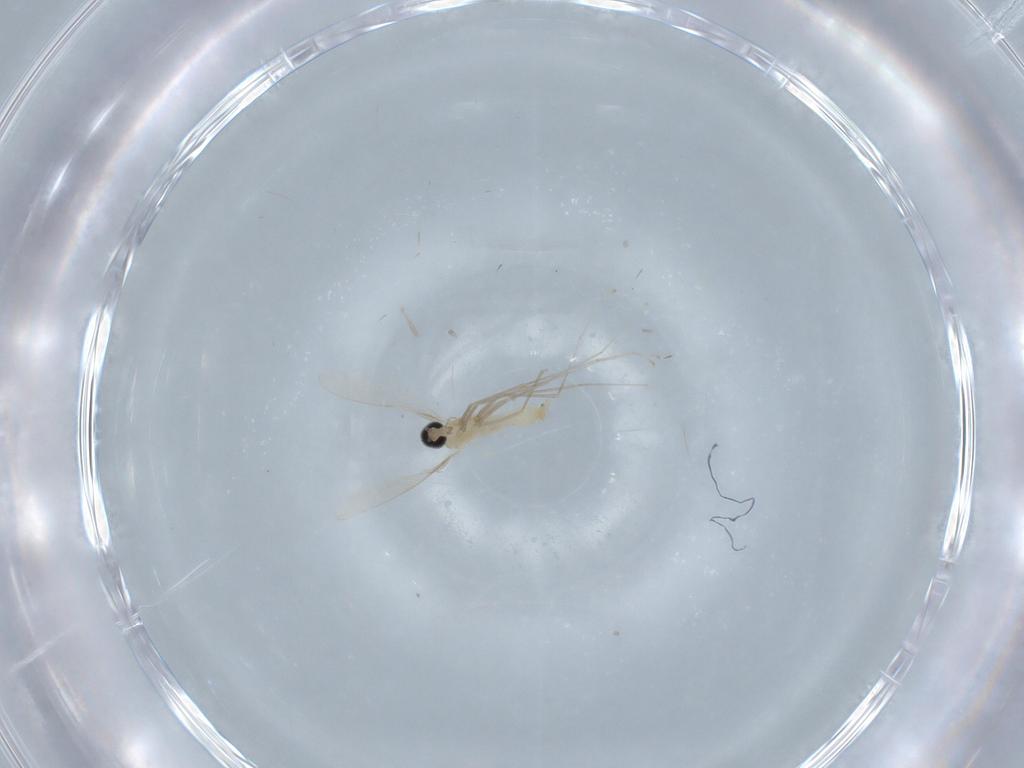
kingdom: Animalia
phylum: Arthropoda
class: Insecta
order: Diptera
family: Cecidomyiidae
